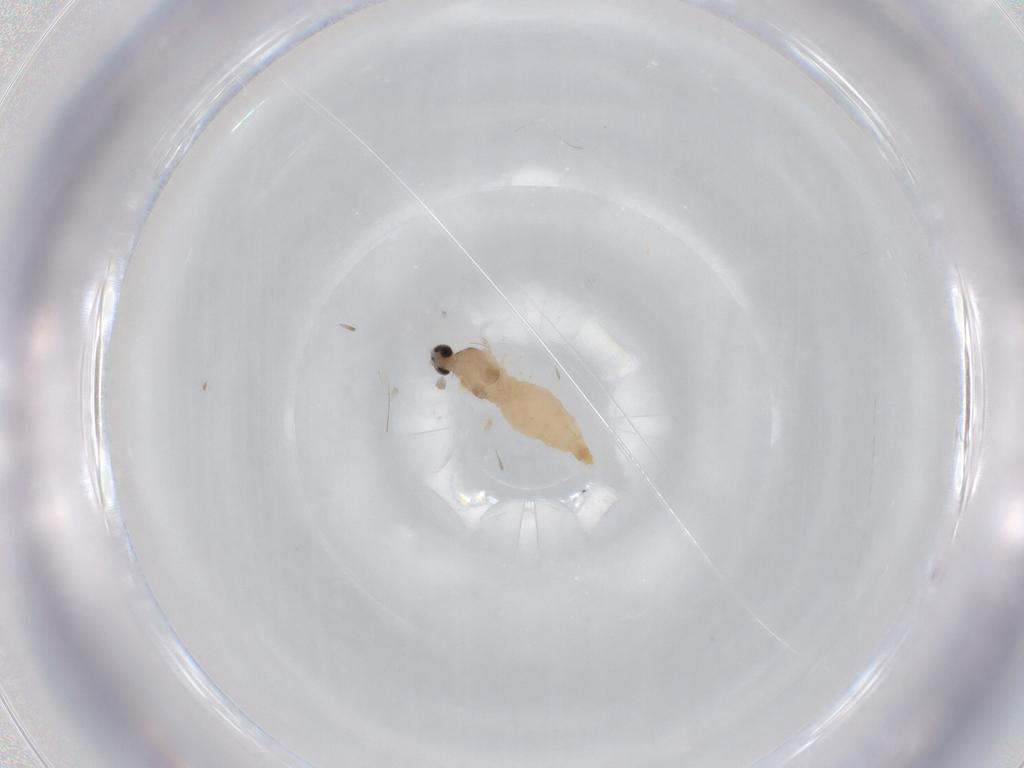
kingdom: Animalia
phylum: Arthropoda
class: Insecta
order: Diptera
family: Cecidomyiidae
